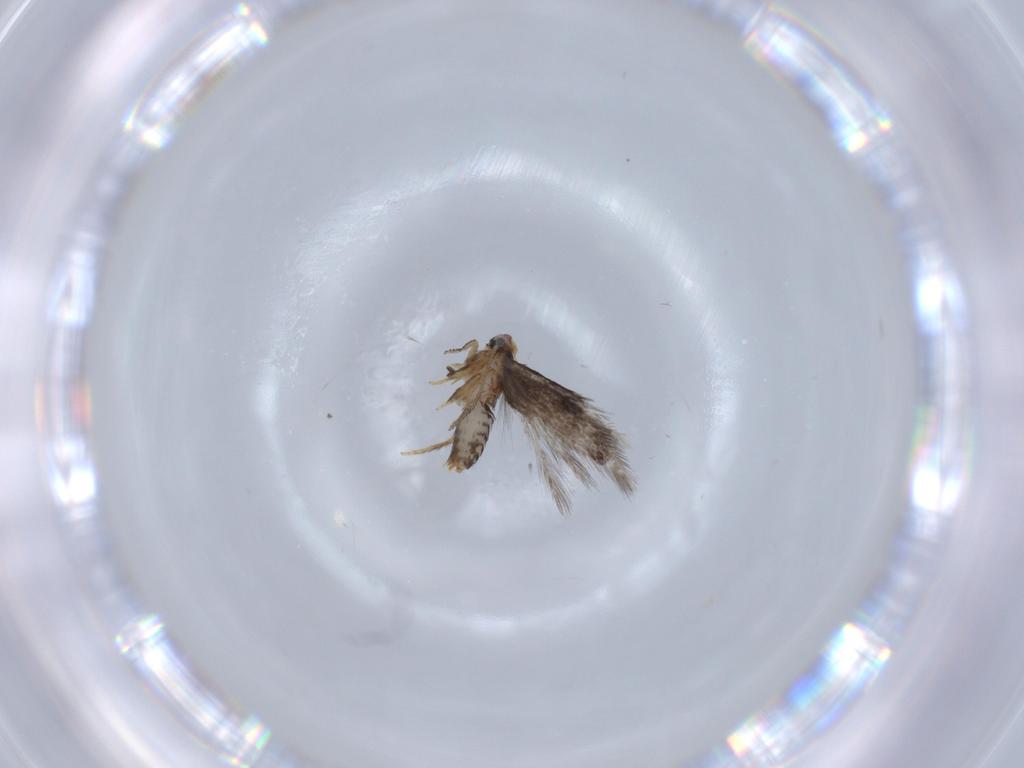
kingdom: Animalia
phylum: Arthropoda
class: Insecta
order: Lepidoptera
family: Nepticulidae
